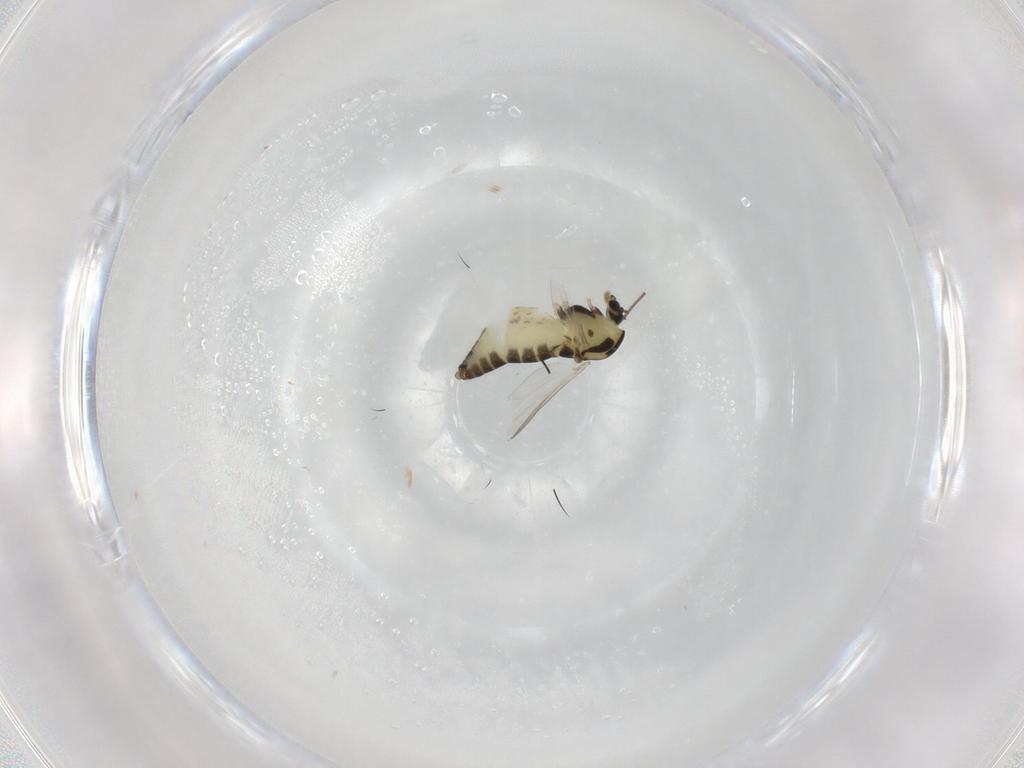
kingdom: Animalia
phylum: Arthropoda
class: Insecta
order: Diptera
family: Chironomidae
